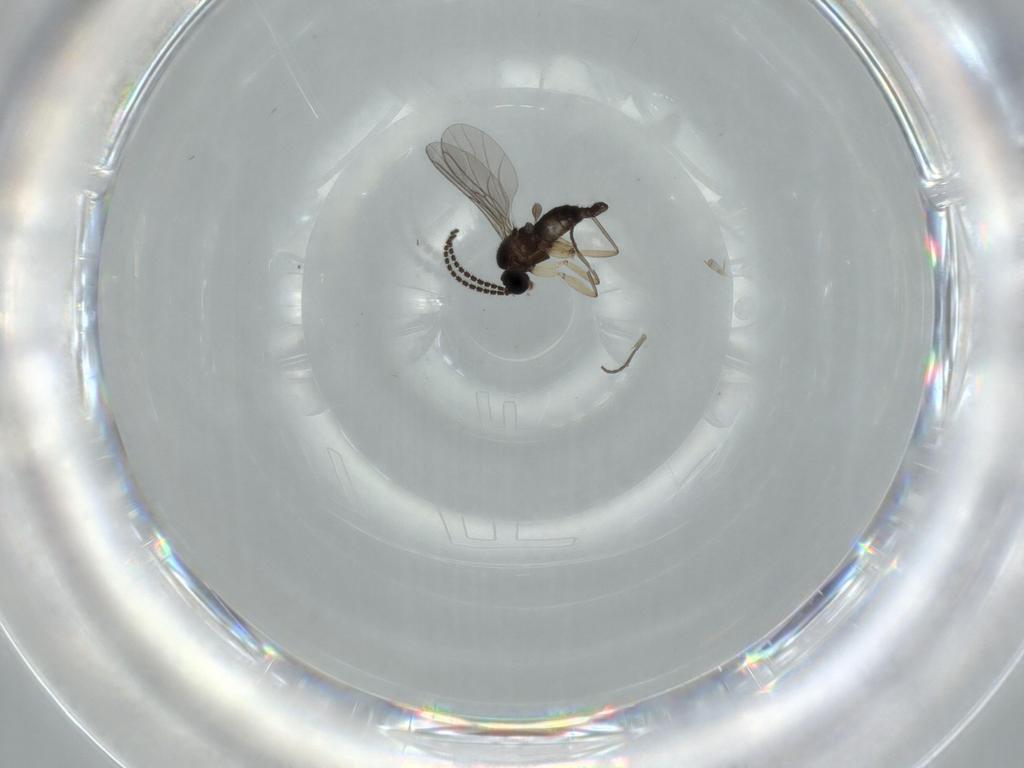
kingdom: Animalia
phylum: Arthropoda
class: Insecta
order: Diptera
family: Sciaridae
